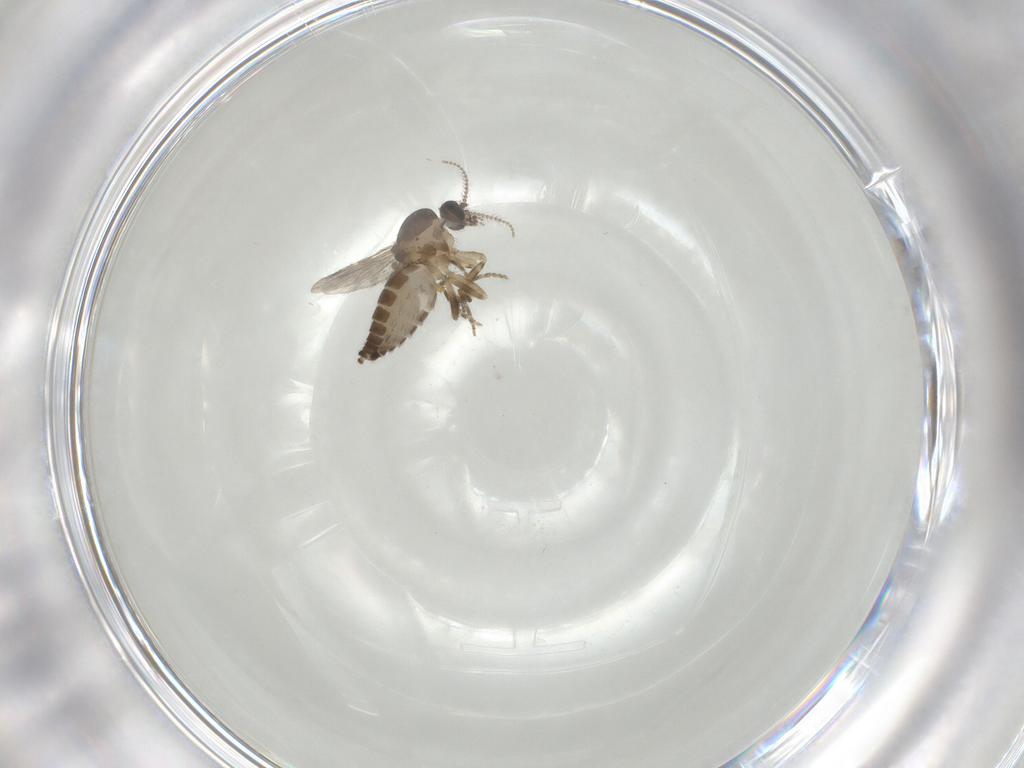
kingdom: Animalia
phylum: Arthropoda
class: Insecta
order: Diptera
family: Ceratopogonidae
